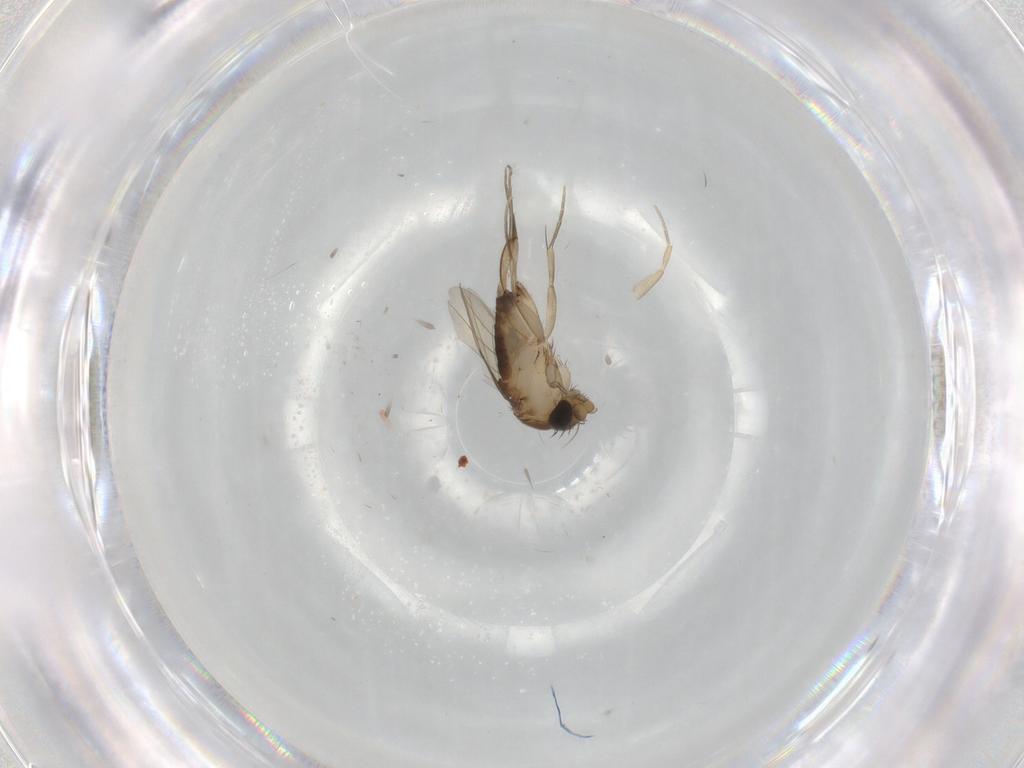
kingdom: Animalia
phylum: Arthropoda
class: Insecta
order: Diptera
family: Phoridae
